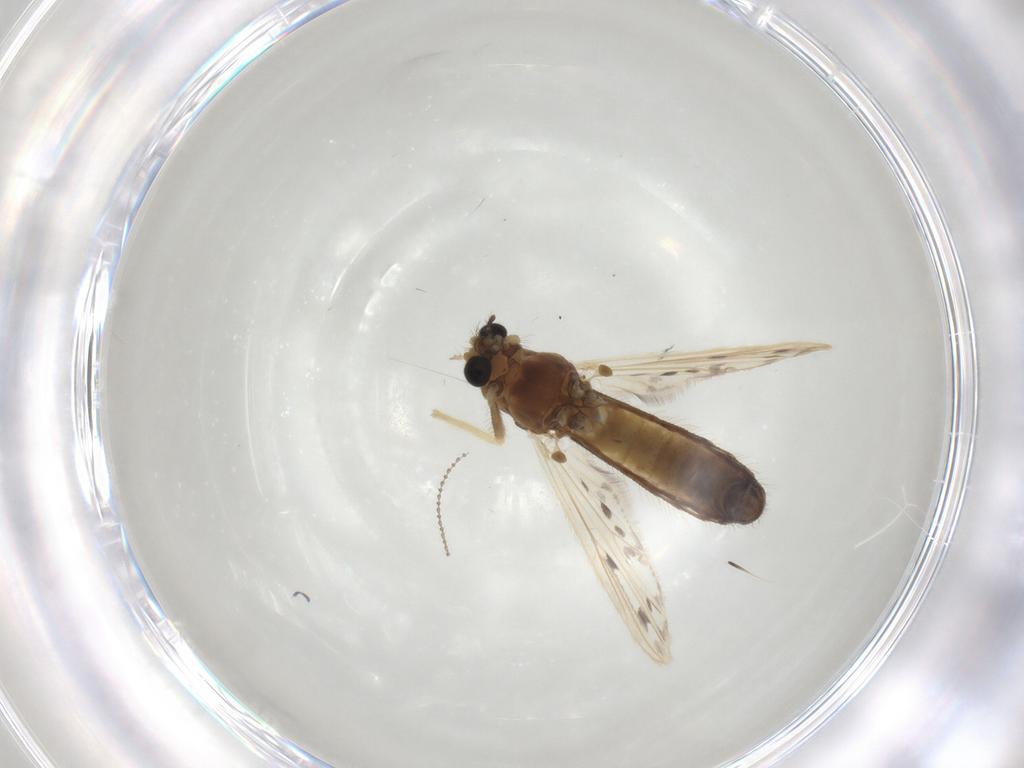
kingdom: Animalia
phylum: Arthropoda
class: Insecta
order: Diptera
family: Chironomidae
